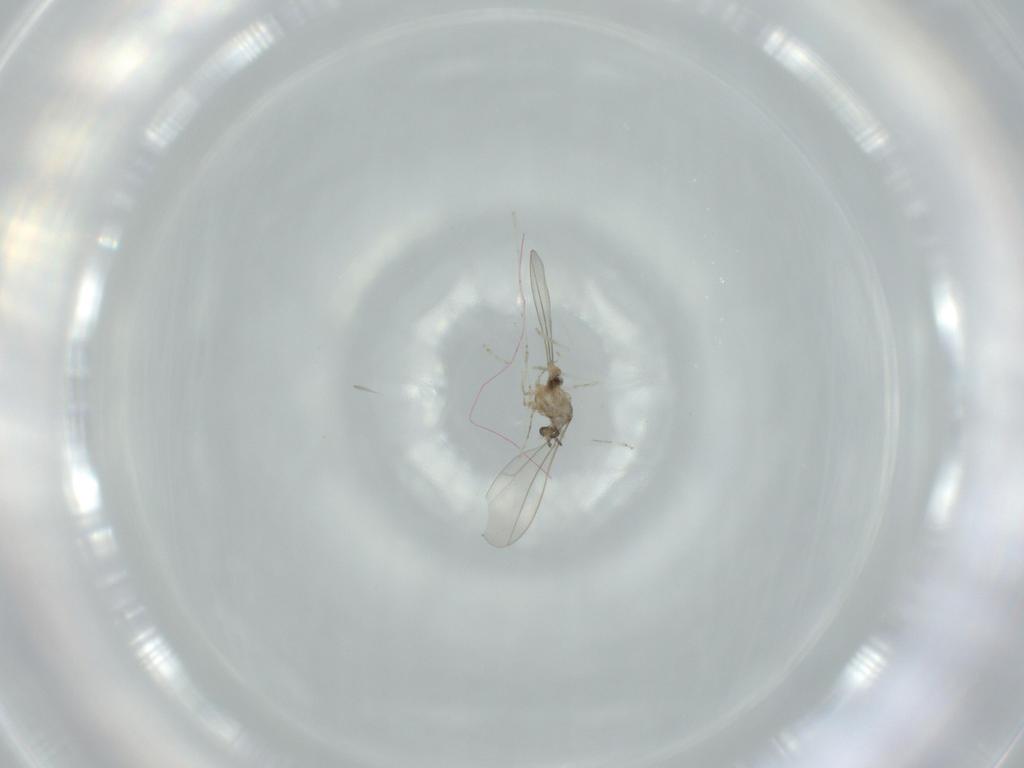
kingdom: Animalia
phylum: Arthropoda
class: Insecta
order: Diptera
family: Cecidomyiidae
